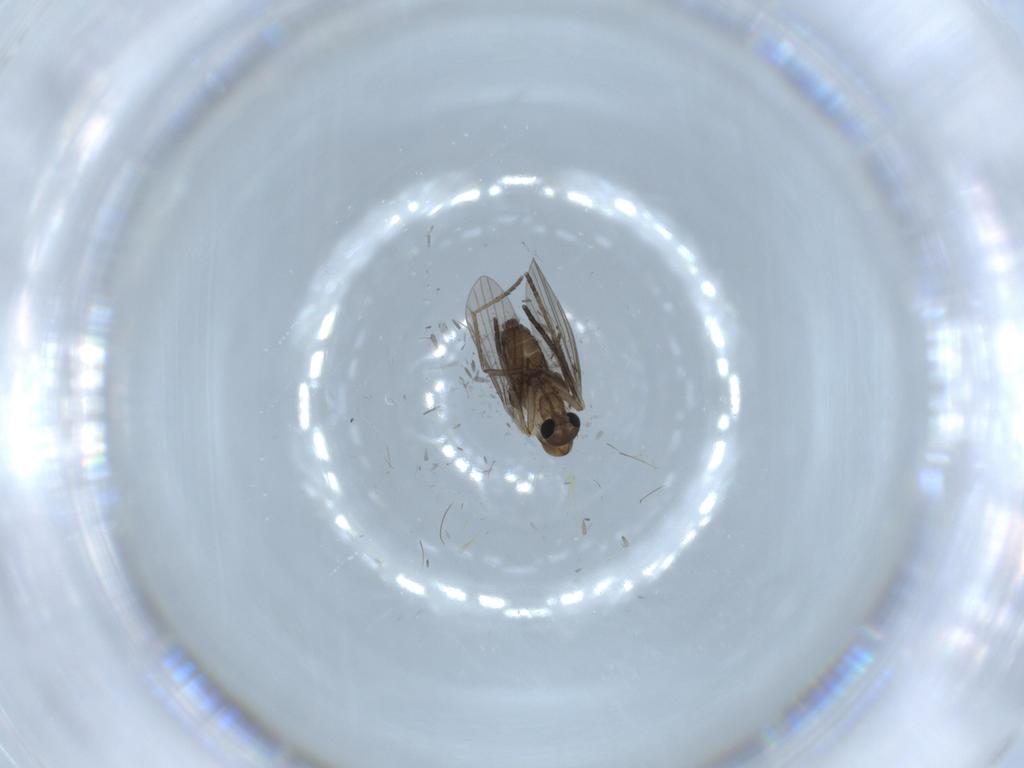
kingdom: Animalia
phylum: Arthropoda
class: Insecta
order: Diptera
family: Psychodidae
